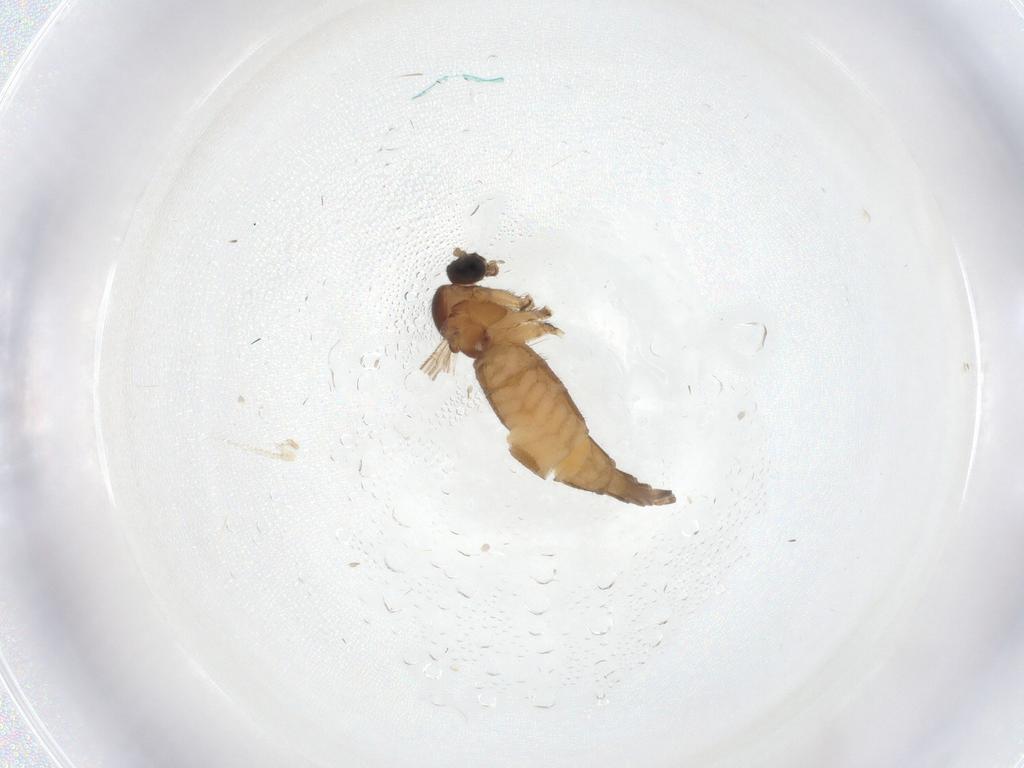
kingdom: Animalia
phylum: Arthropoda
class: Insecta
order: Diptera
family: Sciaridae
